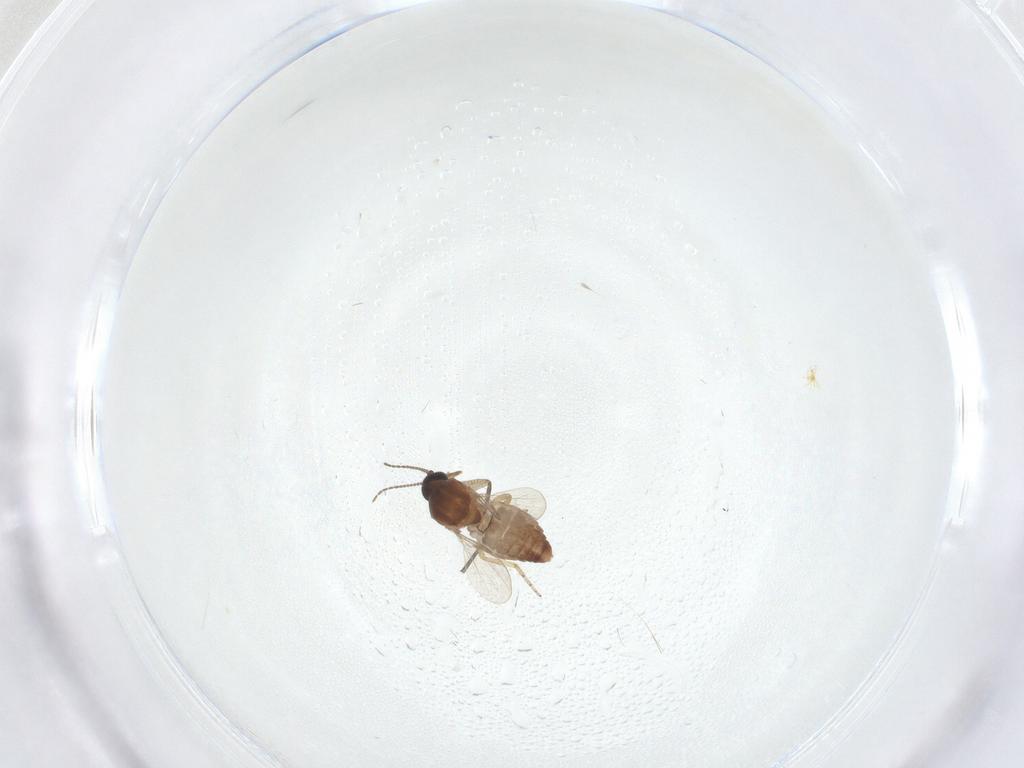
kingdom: Animalia
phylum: Arthropoda
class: Insecta
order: Diptera
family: Sciaridae
